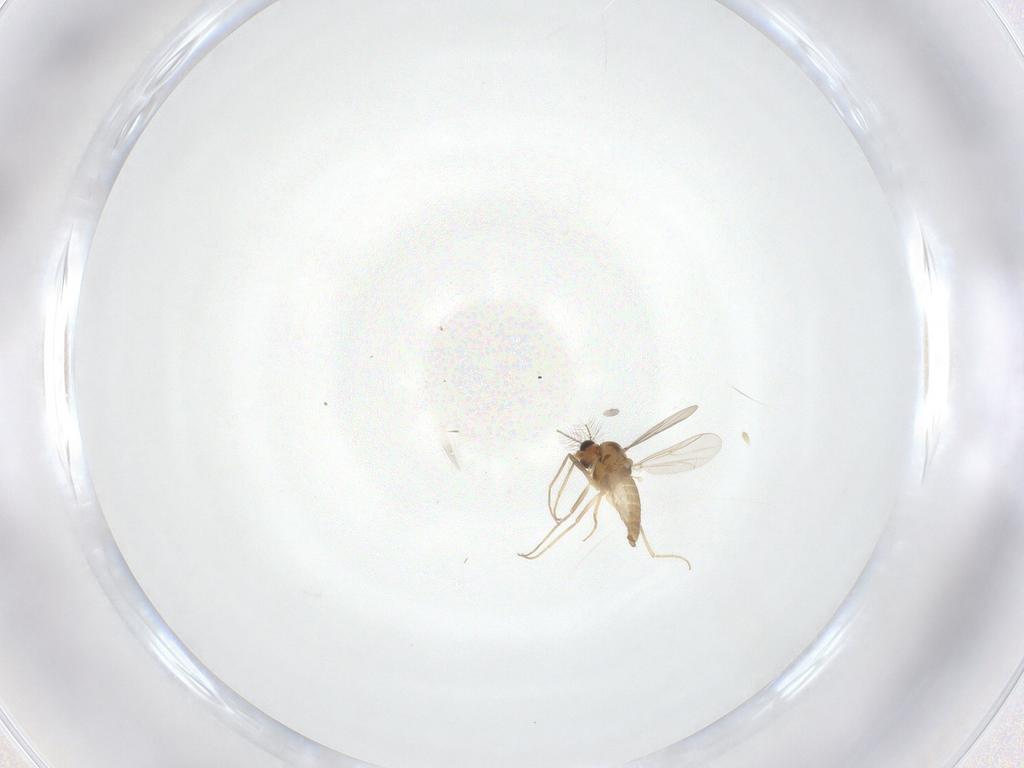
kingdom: Animalia
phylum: Arthropoda
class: Insecta
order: Diptera
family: Chironomidae
